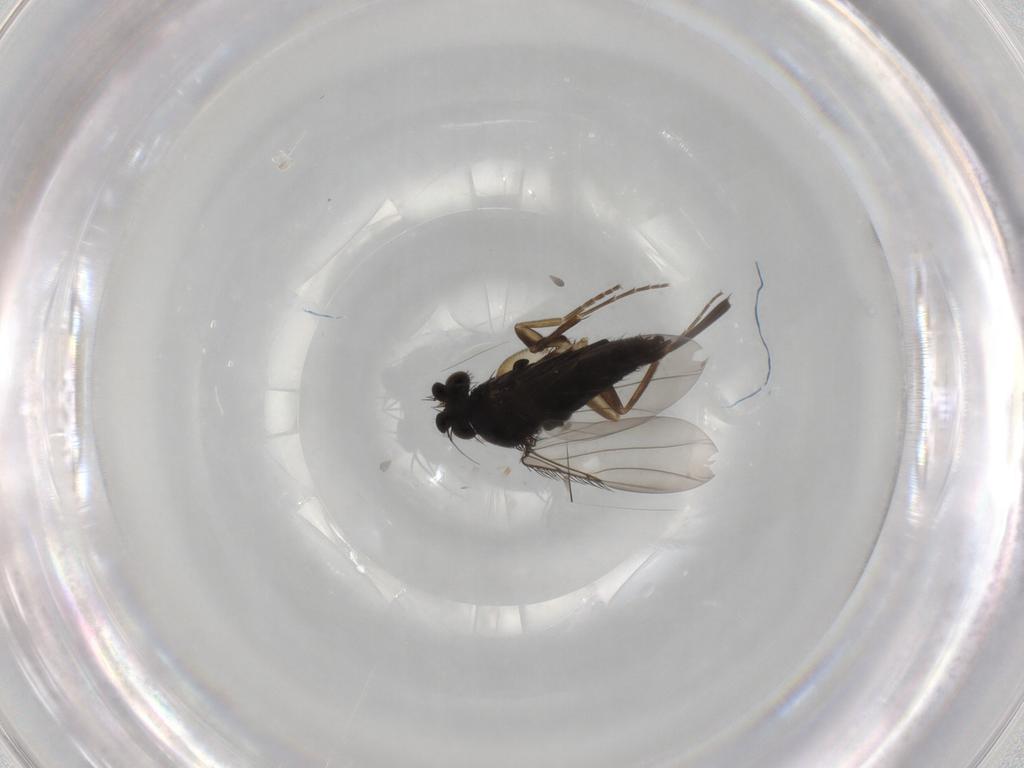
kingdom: Animalia
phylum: Arthropoda
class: Insecta
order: Diptera
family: Phoridae
